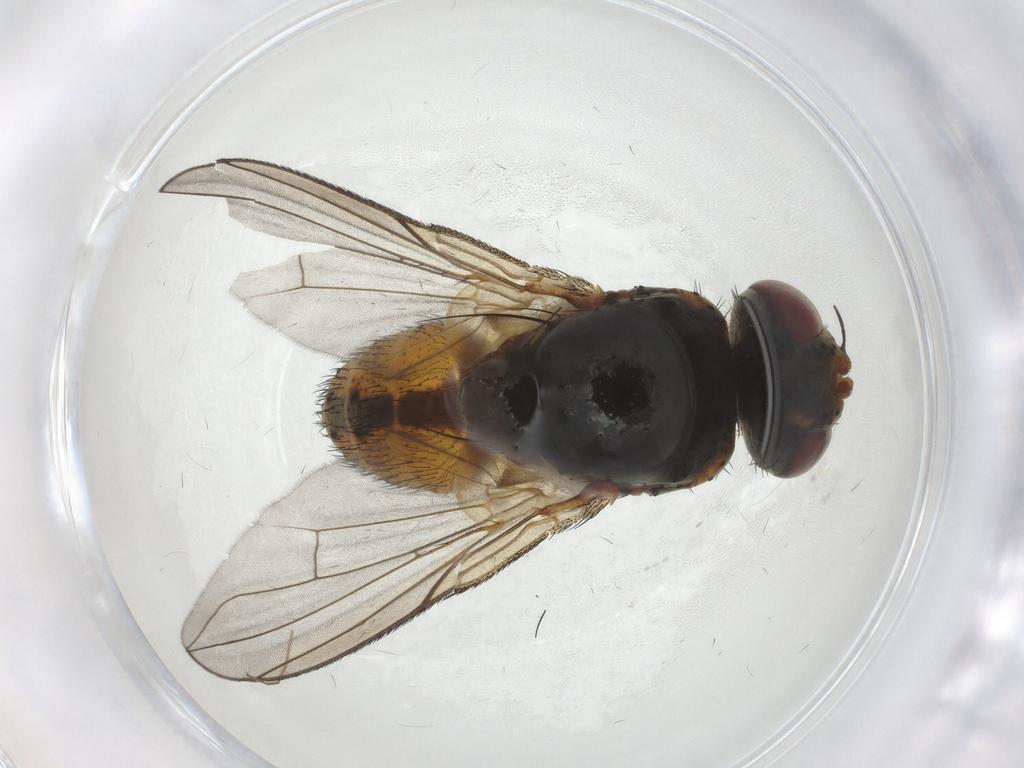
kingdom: Animalia
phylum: Arthropoda
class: Insecta
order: Diptera
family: Tachinidae
